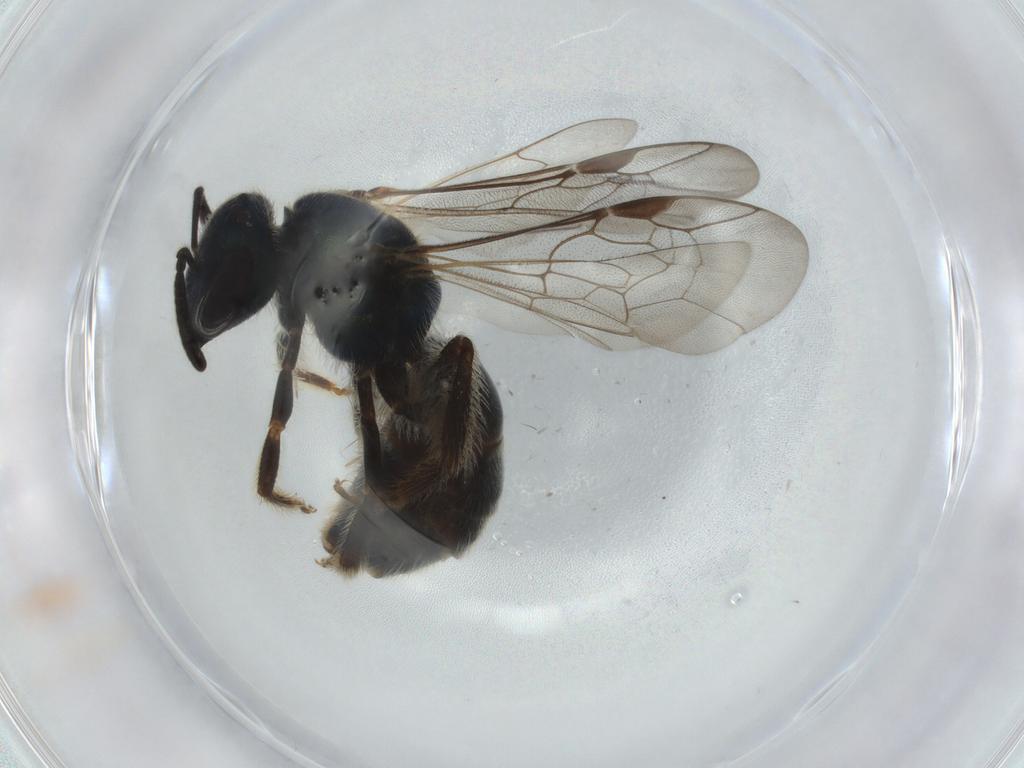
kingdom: Animalia
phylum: Arthropoda
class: Insecta
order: Hymenoptera
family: Halictidae
